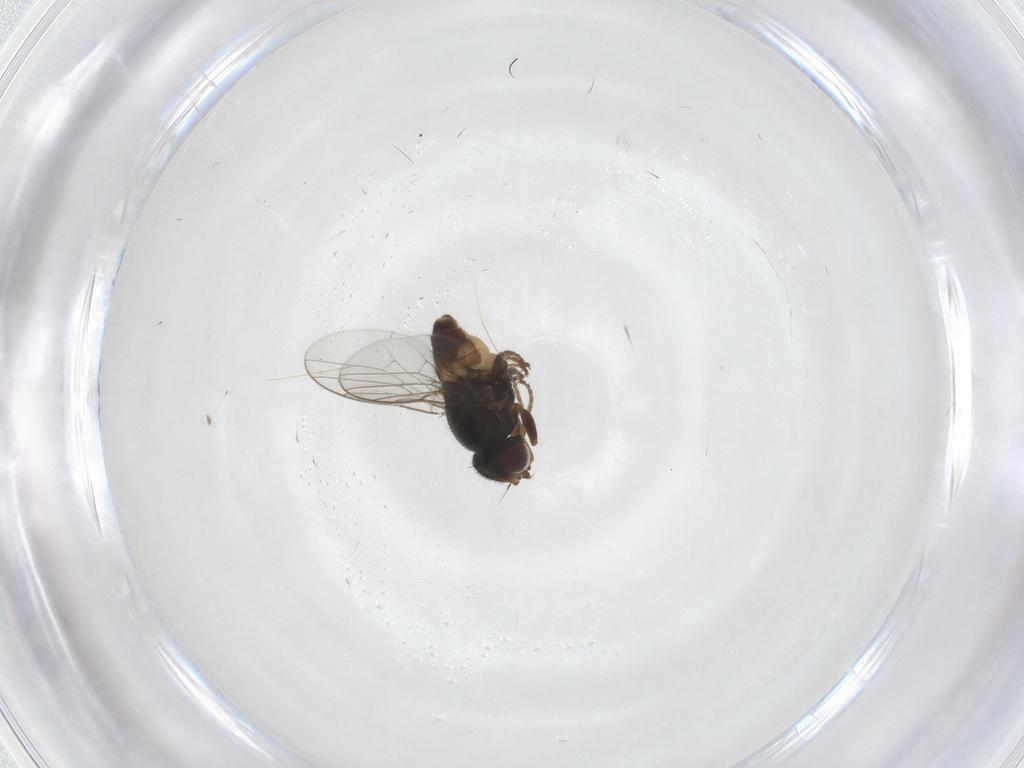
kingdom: Animalia
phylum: Arthropoda
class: Insecta
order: Diptera
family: Chloropidae
